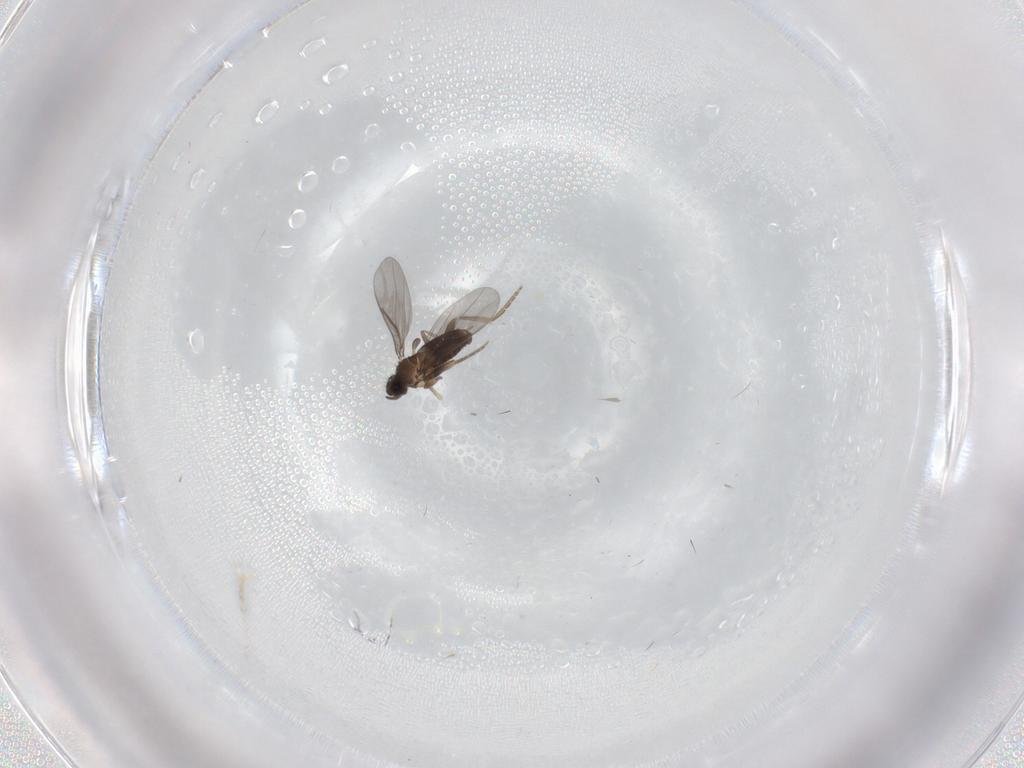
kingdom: Animalia
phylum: Arthropoda
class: Insecta
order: Diptera
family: Phoridae
